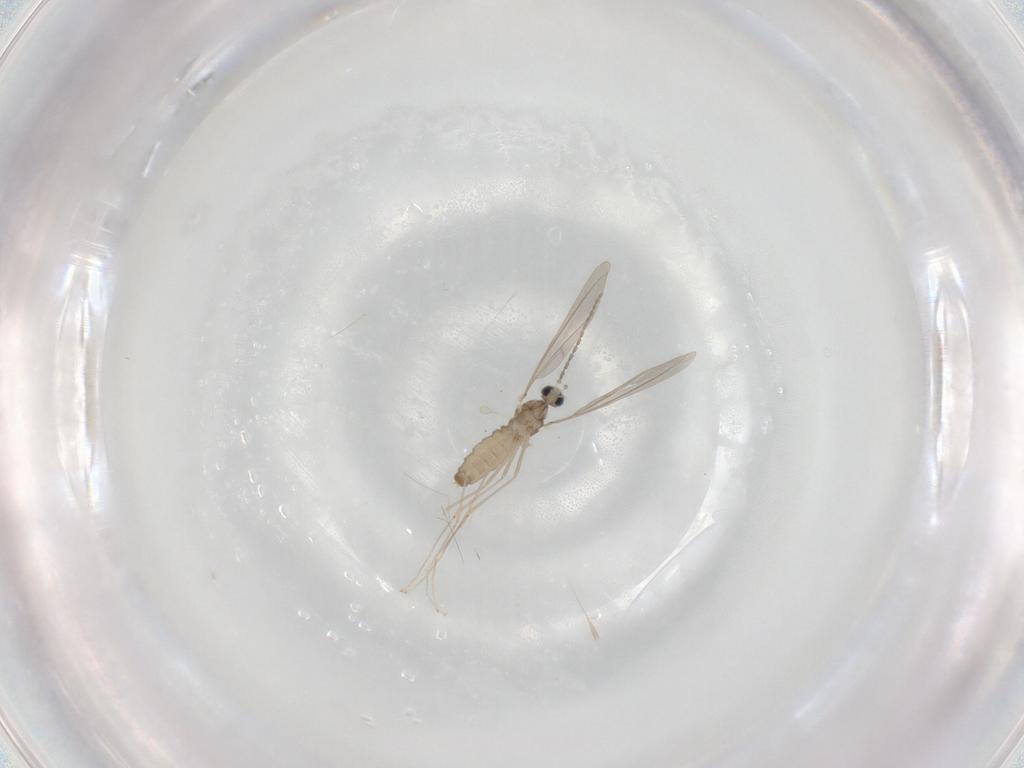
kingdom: Animalia
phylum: Arthropoda
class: Insecta
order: Diptera
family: Cecidomyiidae
